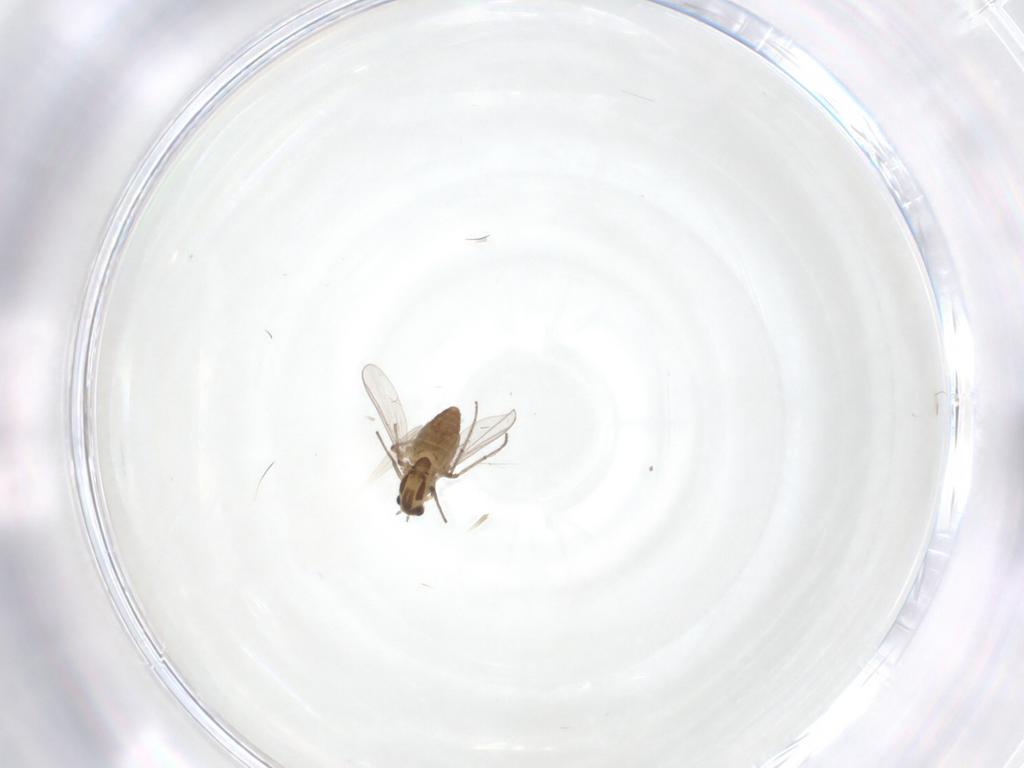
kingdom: Animalia
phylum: Arthropoda
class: Insecta
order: Diptera
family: Chironomidae
